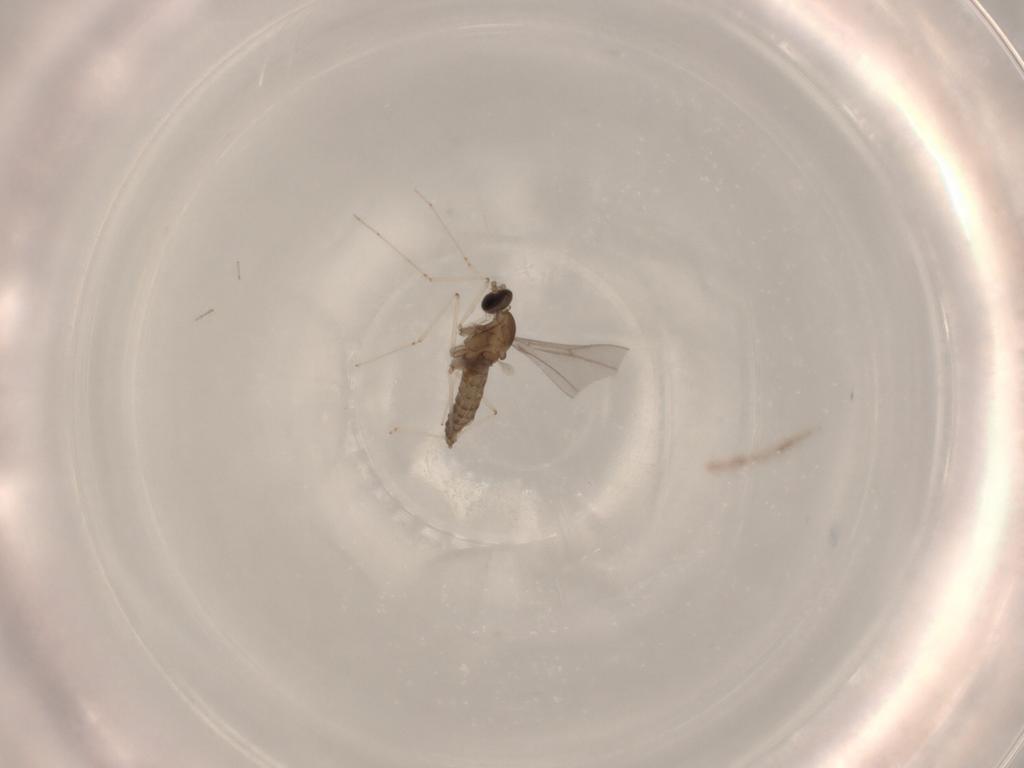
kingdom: Animalia
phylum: Arthropoda
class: Insecta
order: Diptera
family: Cecidomyiidae
